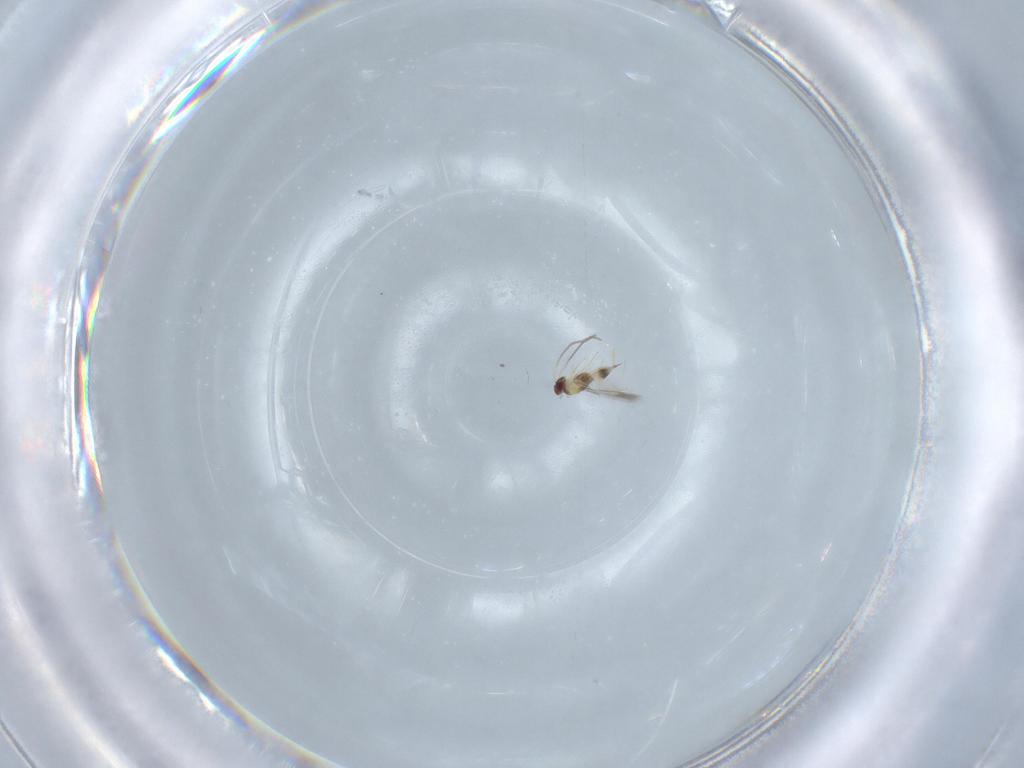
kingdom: Animalia
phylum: Arthropoda
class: Insecta
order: Hymenoptera
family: Mymaridae
